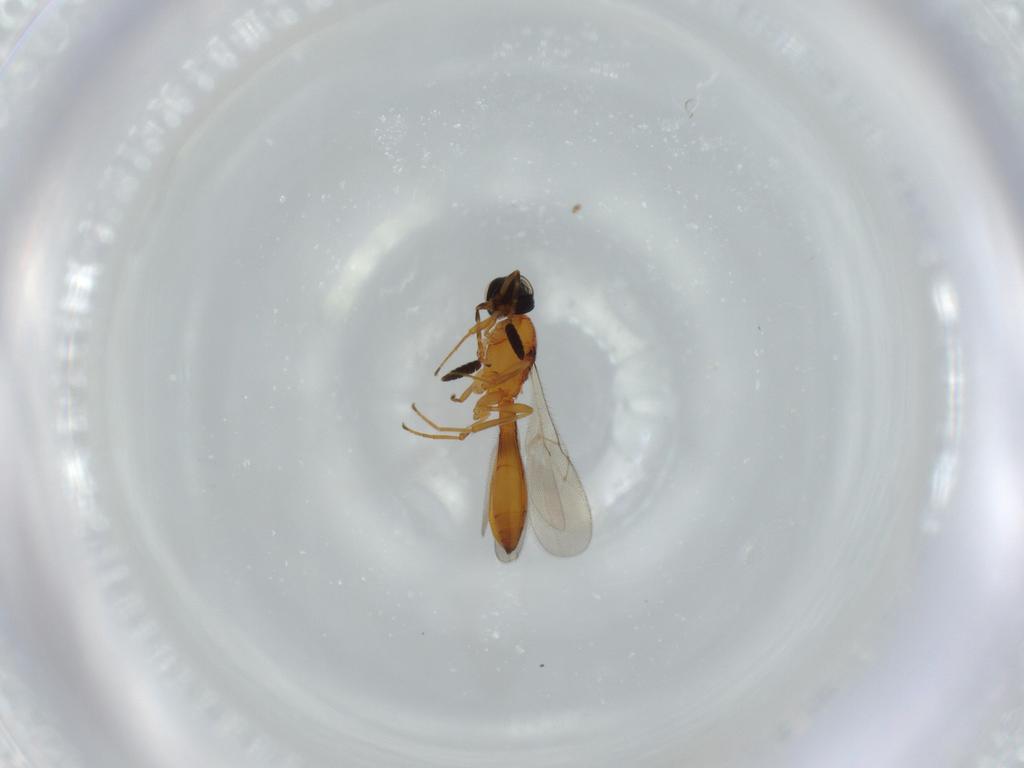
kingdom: Animalia
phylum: Arthropoda
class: Insecta
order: Hymenoptera
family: Scelionidae
